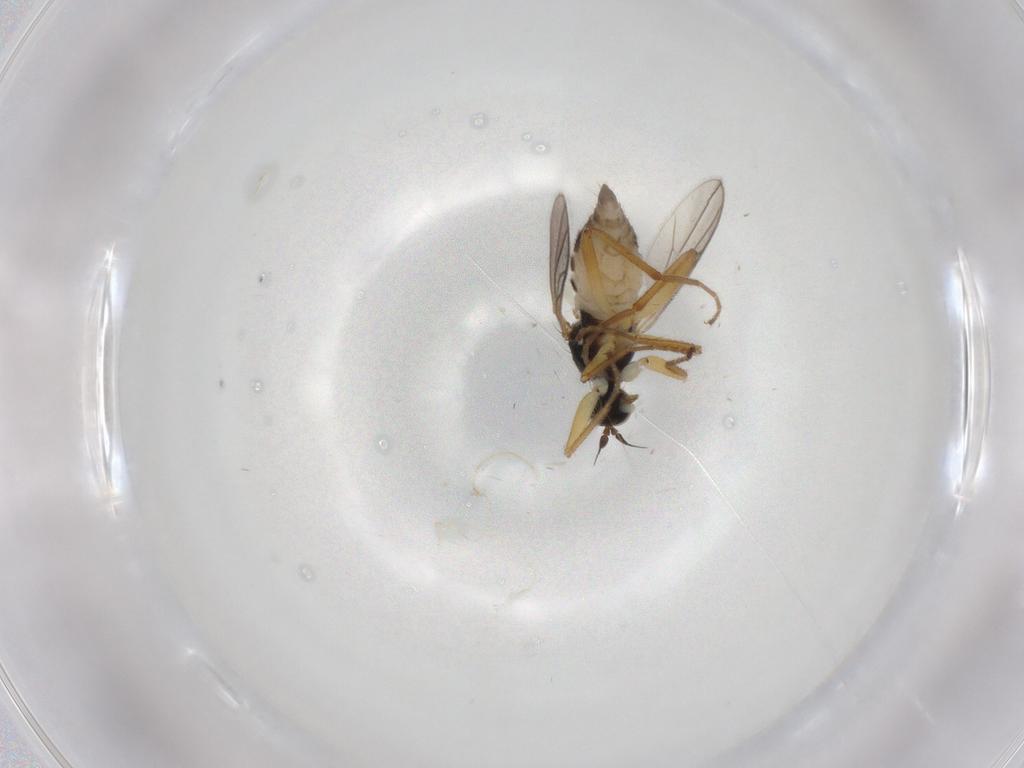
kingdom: Animalia
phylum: Arthropoda
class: Insecta
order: Diptera
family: Hybotidae
